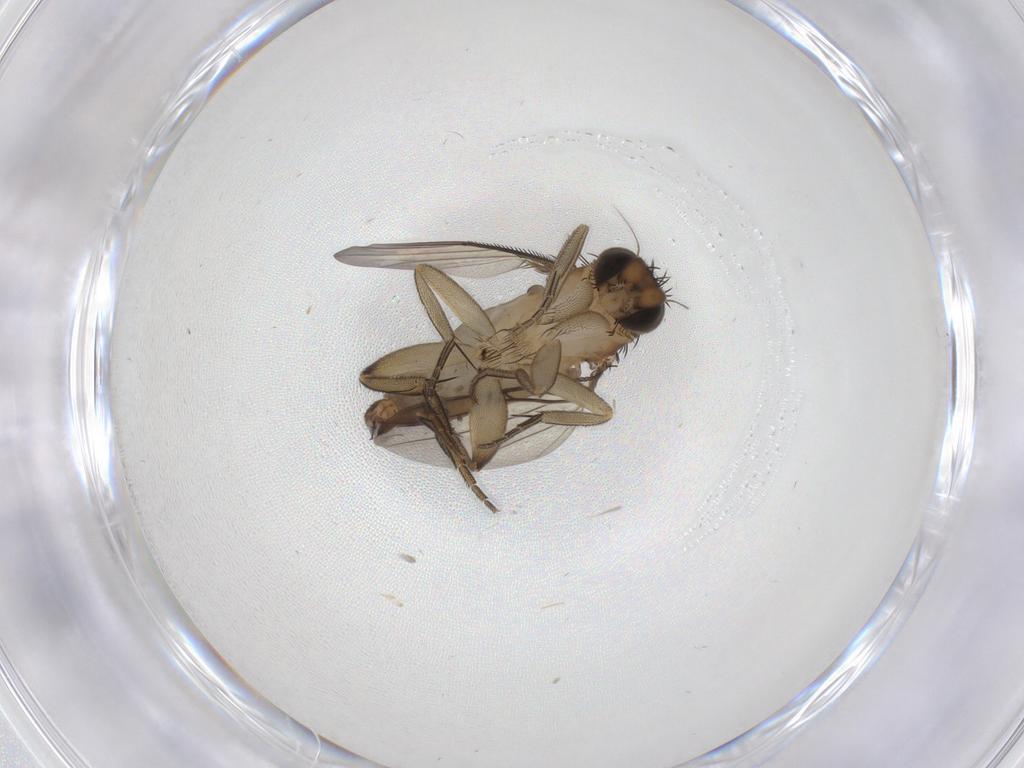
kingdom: Animalia
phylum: Arthropoda
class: Insecta
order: Diptera
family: Phoridae
